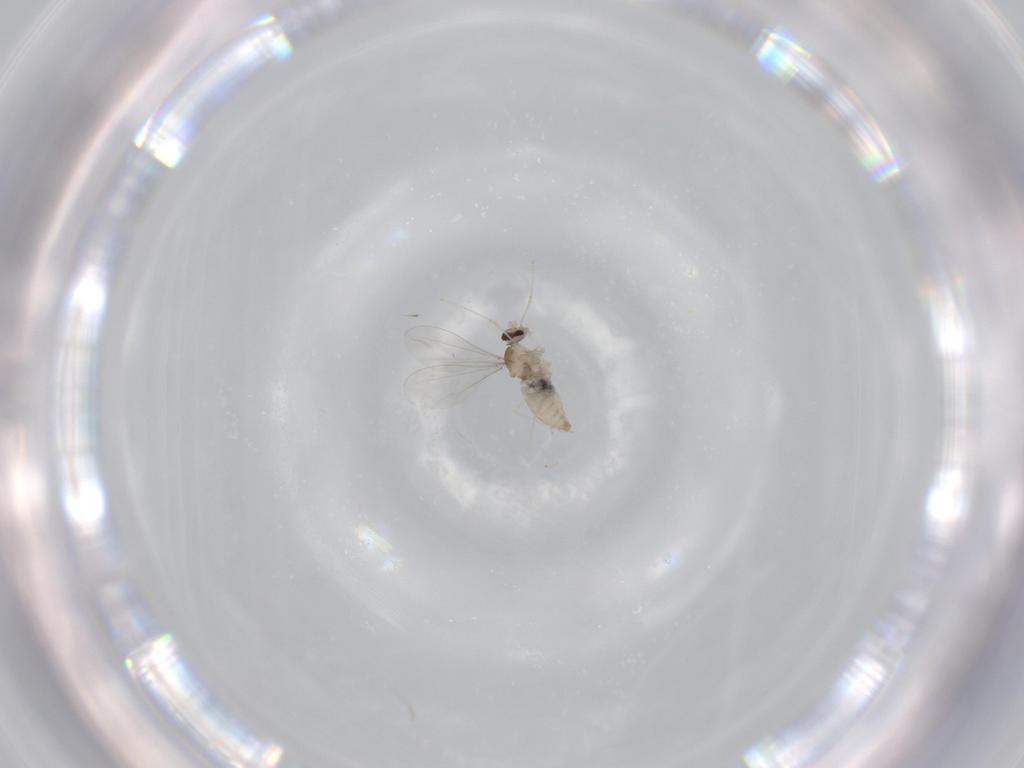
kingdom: Animalia
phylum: Arthropoda
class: Insecta
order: Diptera
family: Cecidomyiidae
